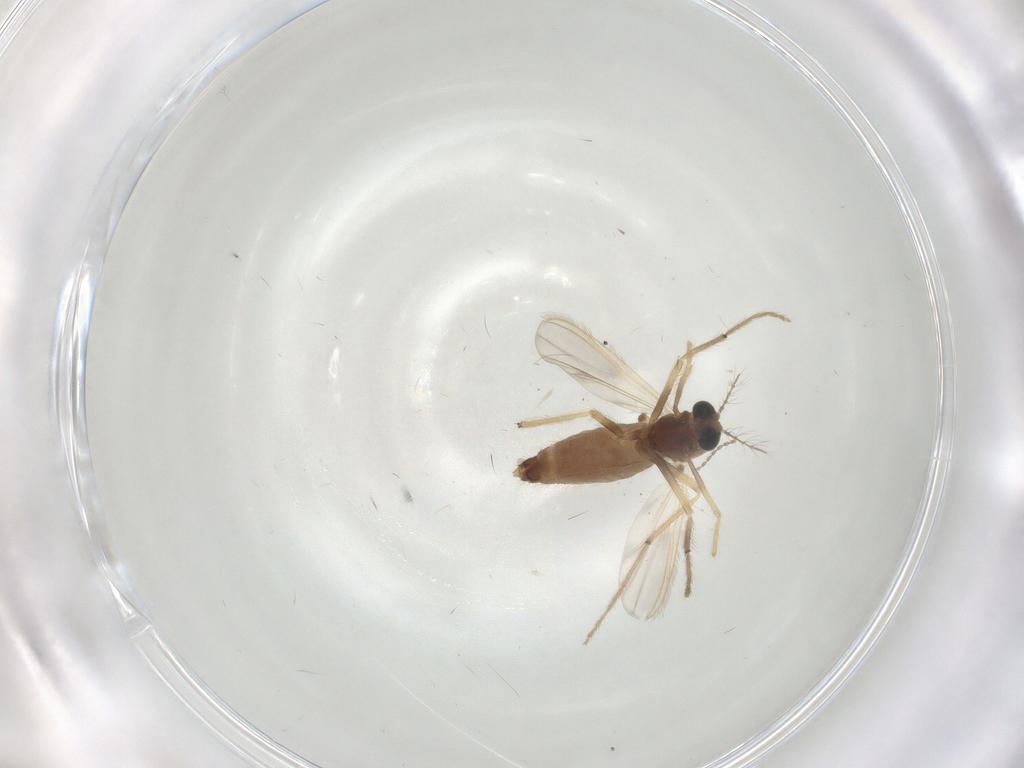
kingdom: Animalia
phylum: Arthropoda
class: Insecta
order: Diptera
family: Chironomidae
